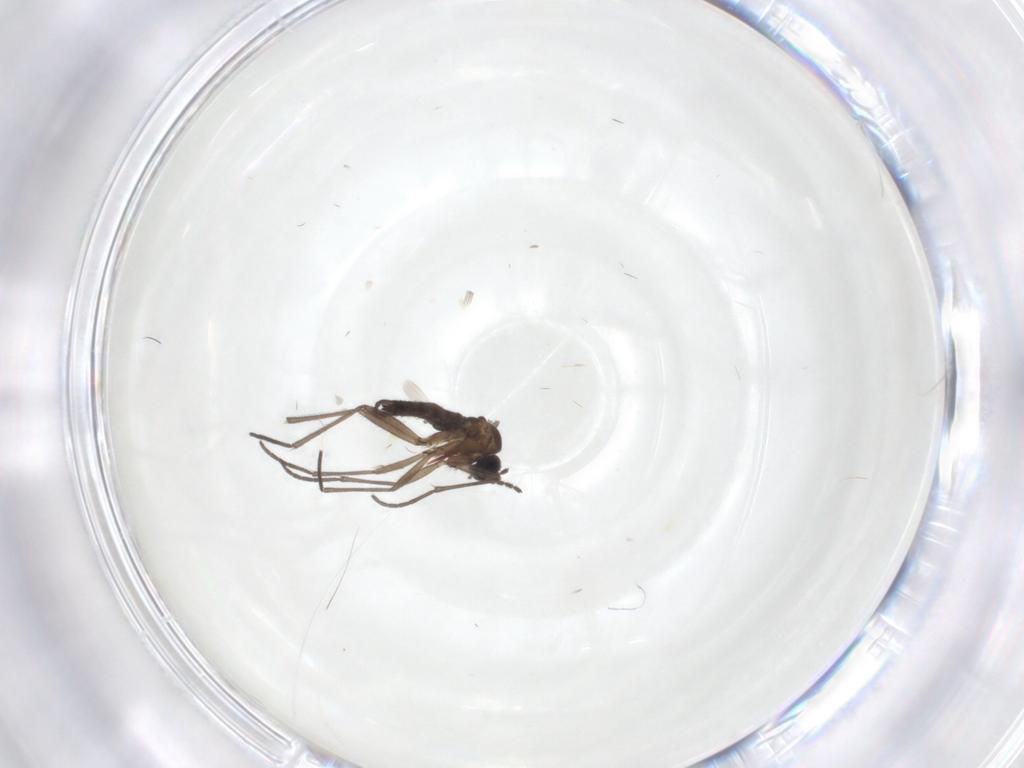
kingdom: Animalia
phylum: Arthropoda
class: Insecta
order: Diptera
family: Sciaridae
